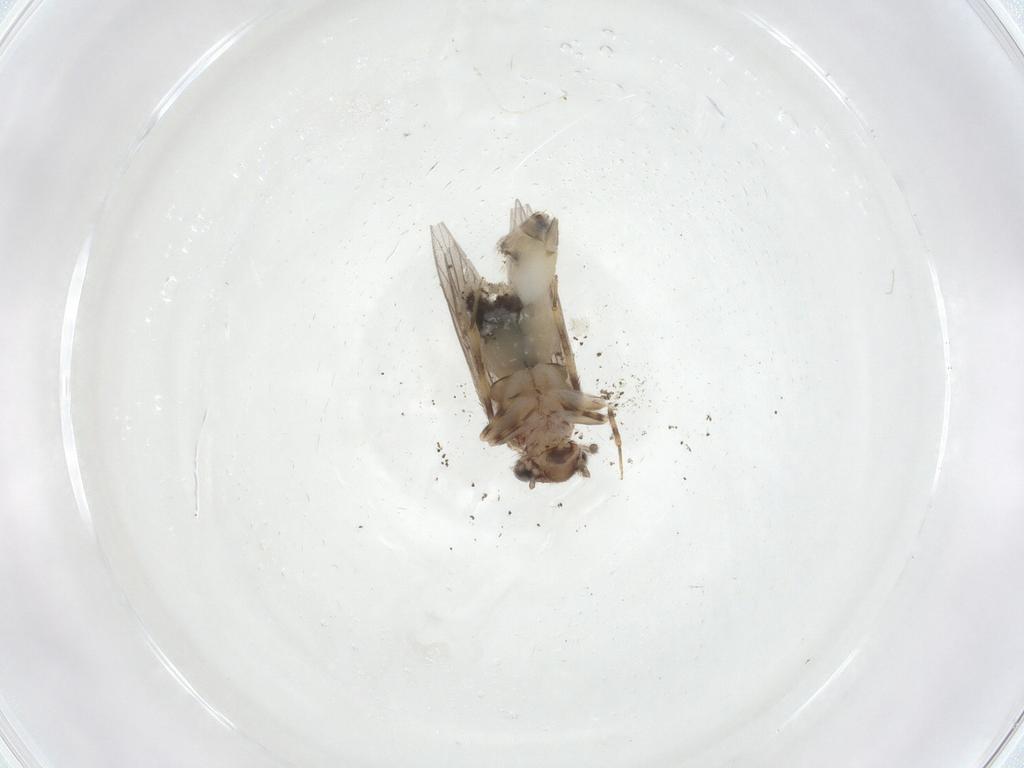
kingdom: Animalia
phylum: Arthropoda
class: Insecta
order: Psocodea
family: Lepidopsocidae
